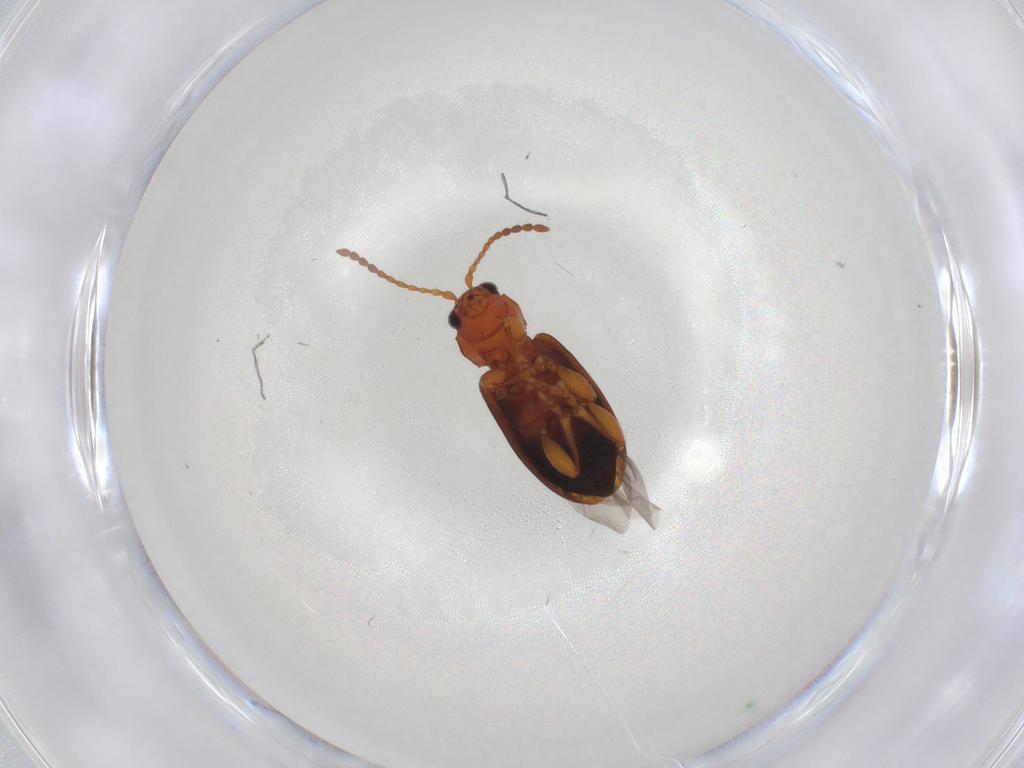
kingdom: Animalia
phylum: Arthropoda
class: Insecta
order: Coleoptera
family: Chrysomelidae
